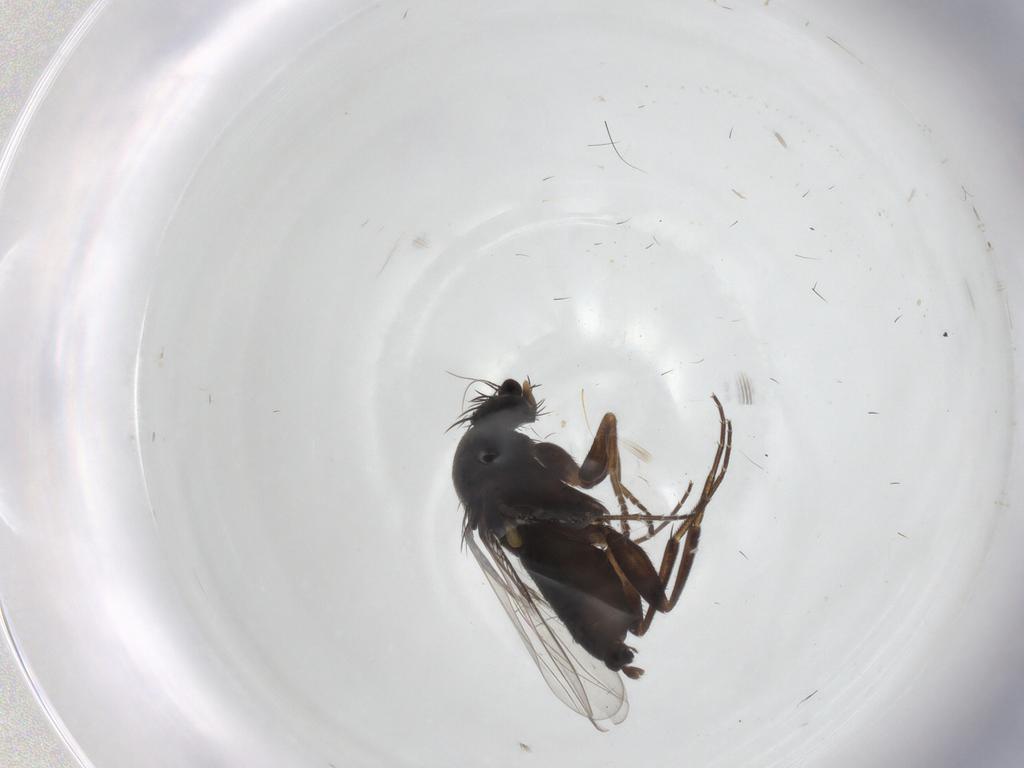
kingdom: Animalia
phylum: Arthropoda
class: Insecta
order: Diptera
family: Phoridae
